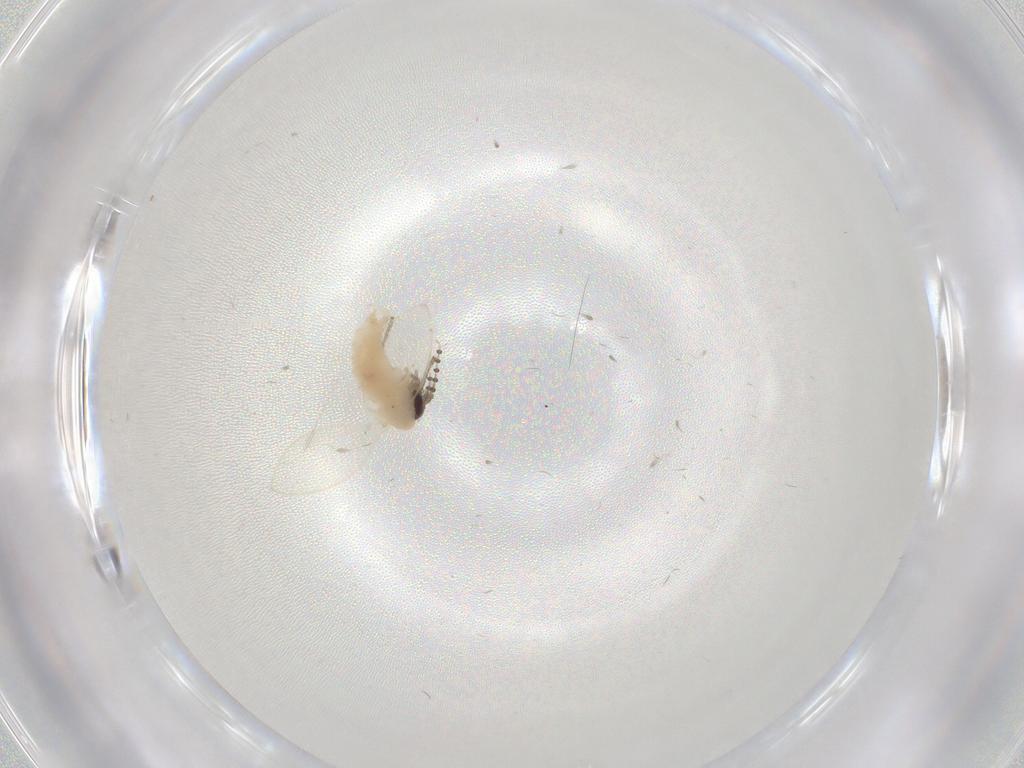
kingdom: Animalia
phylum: Arthropoda
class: Insecta
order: Diptera
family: Psychodidae
